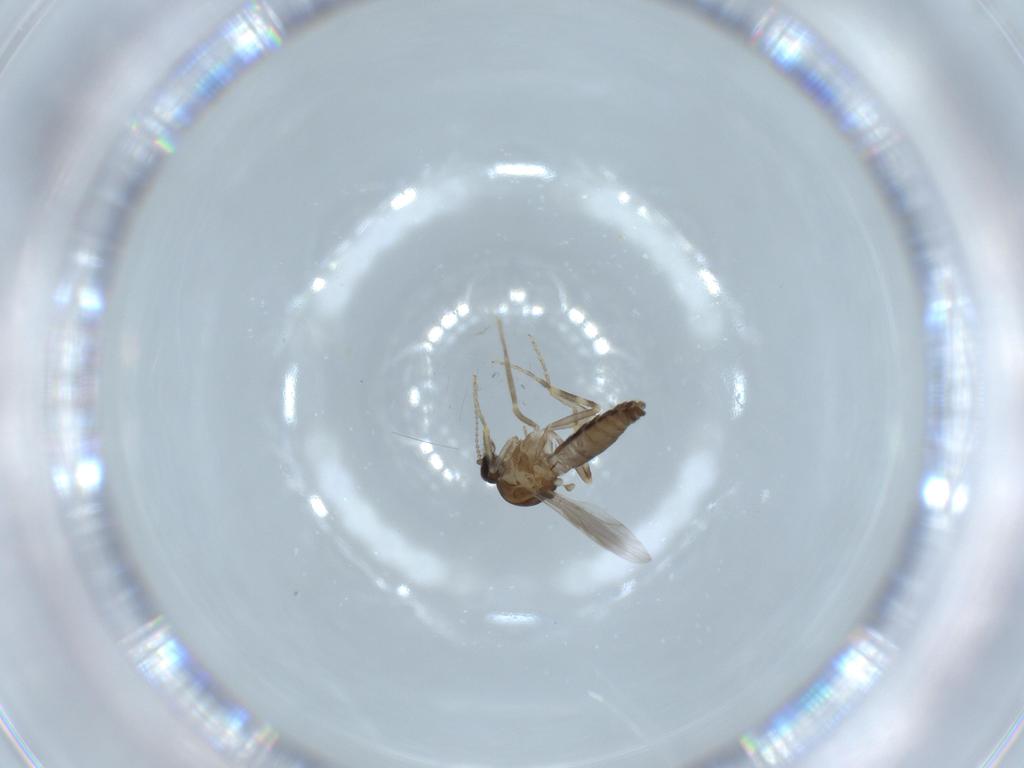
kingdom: Animalia
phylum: Arthropoda
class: Insecta
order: Diptera
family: Ceratopogonidae
